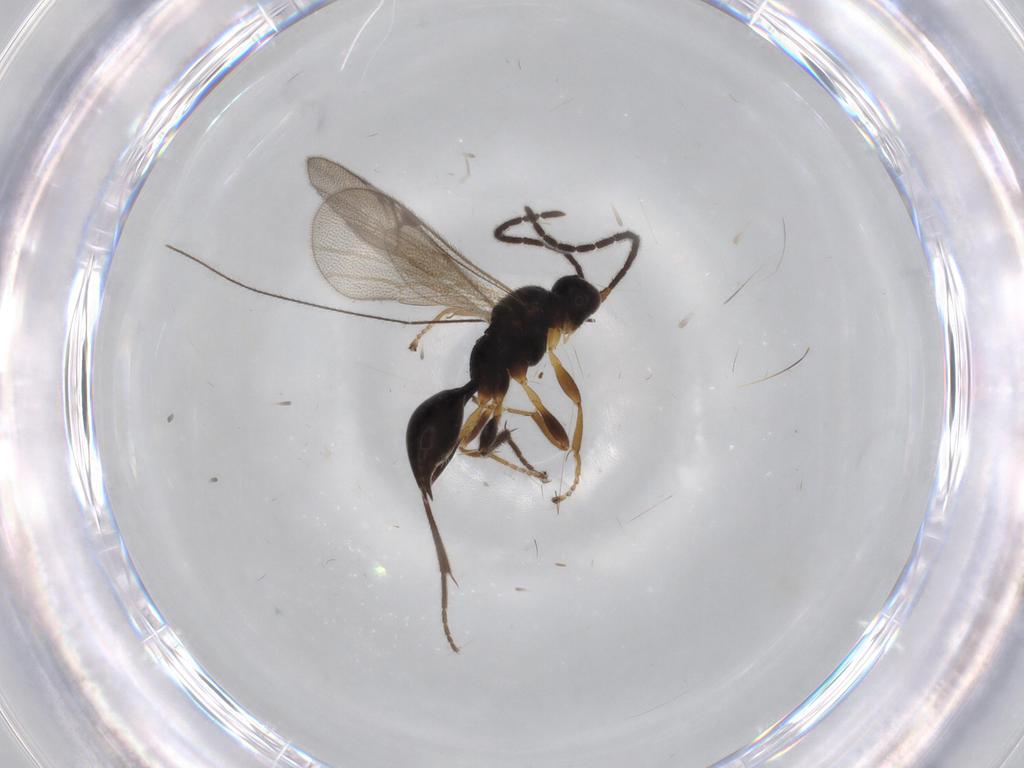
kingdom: Animalia
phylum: Arthropoda
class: Insecta
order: Hymenoptera
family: Proctotrupidae
